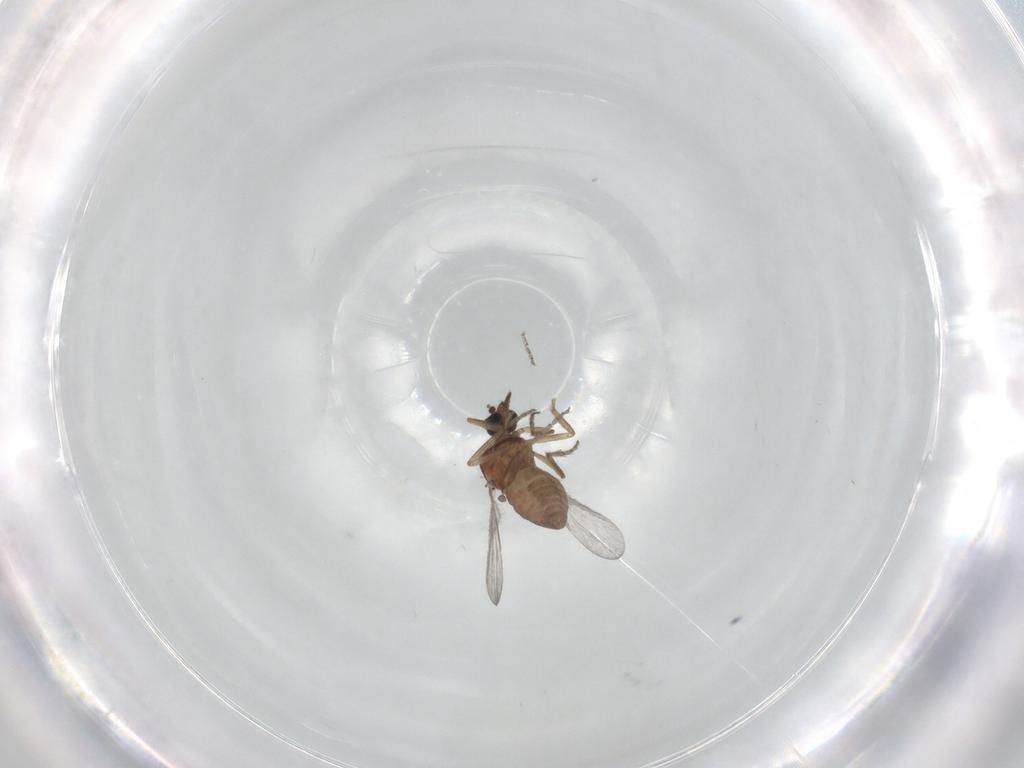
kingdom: Animalia
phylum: Arthropoda
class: Insecta
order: Diptera
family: Ceratopogonidae
